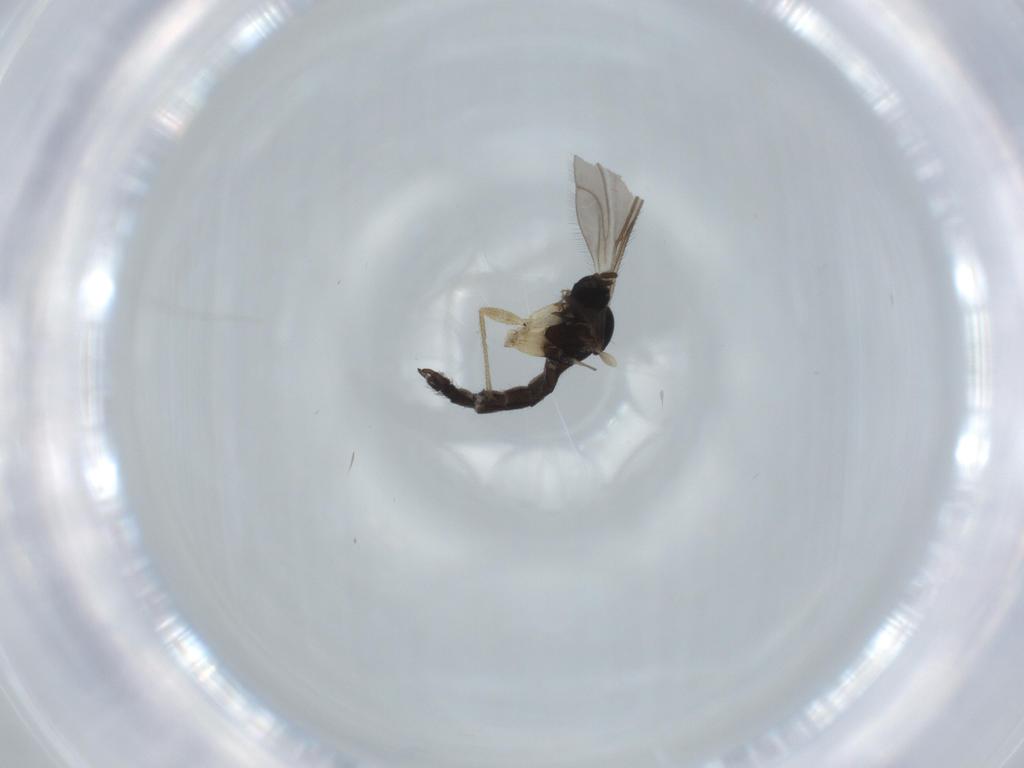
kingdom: Animalia
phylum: Arthropoda
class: Insecta
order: Diptera
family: Sciaridae
